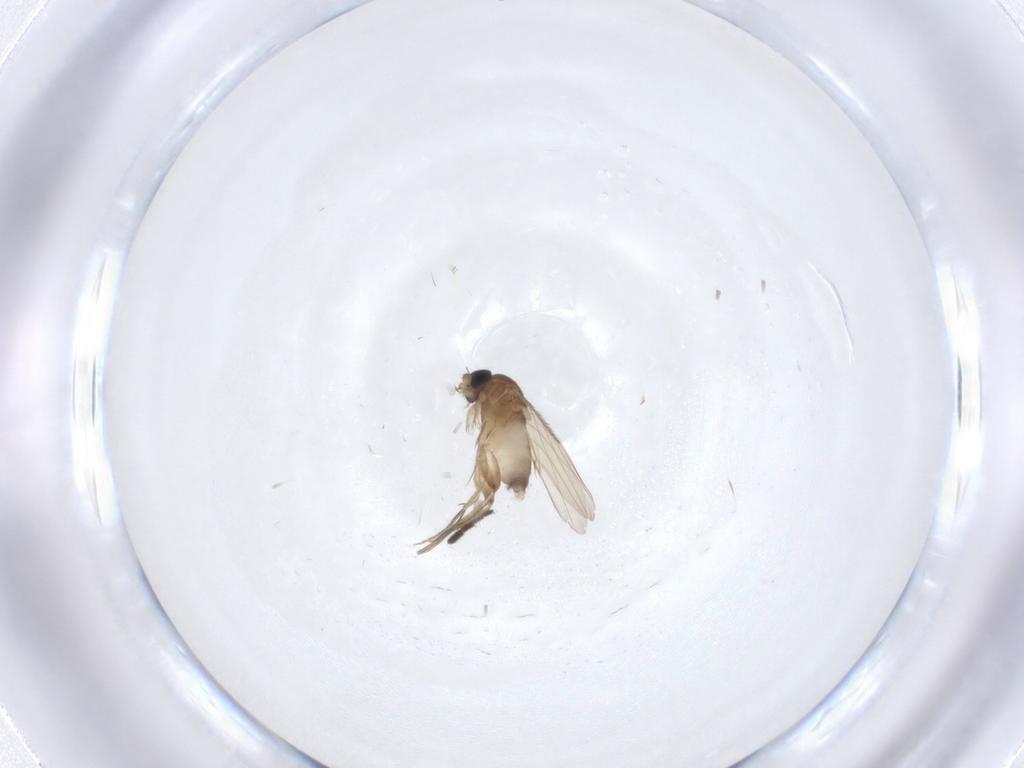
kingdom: Animalia
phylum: Arthropoda
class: Insecta
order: Diptera
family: Phoridae
